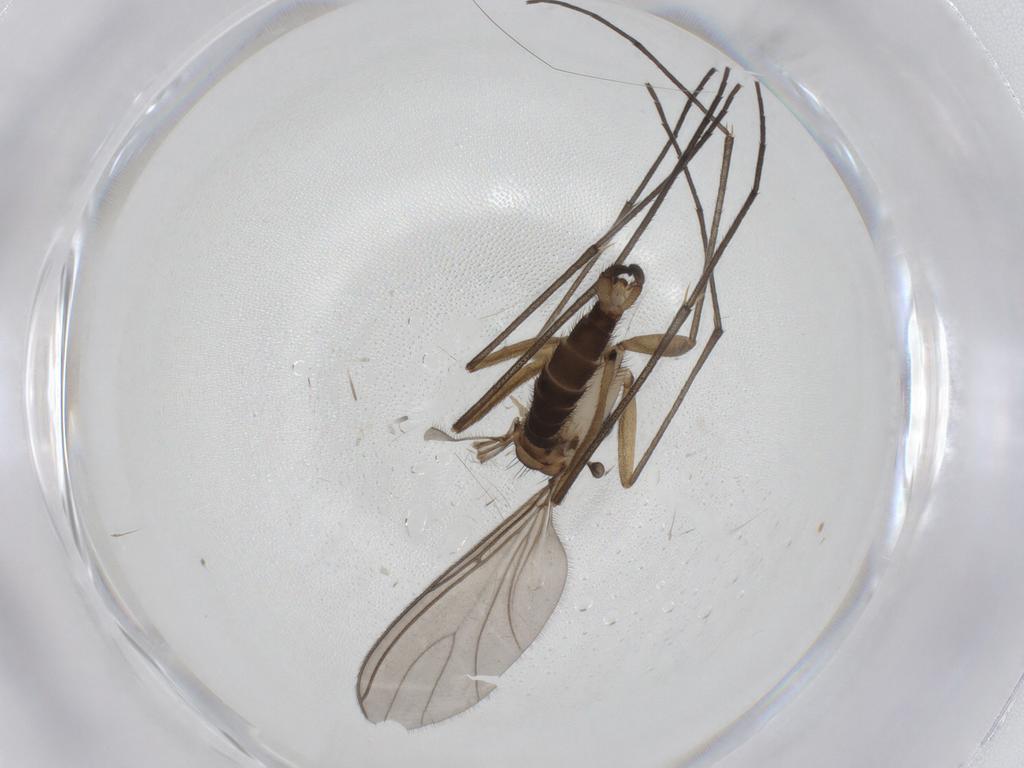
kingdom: Animalia
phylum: Arthropoda
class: Insecta
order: Diptera
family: Sciaridae
